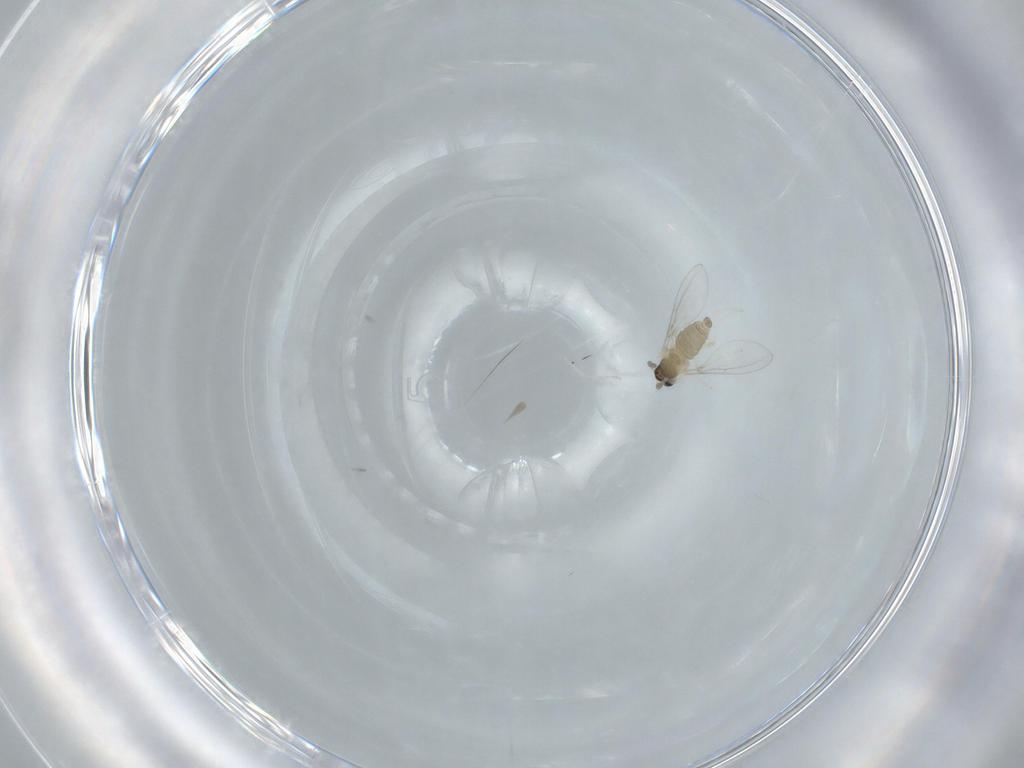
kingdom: Animalia
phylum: Arthropoda
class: Insecta
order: Diptera
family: Cecidomyiidae
